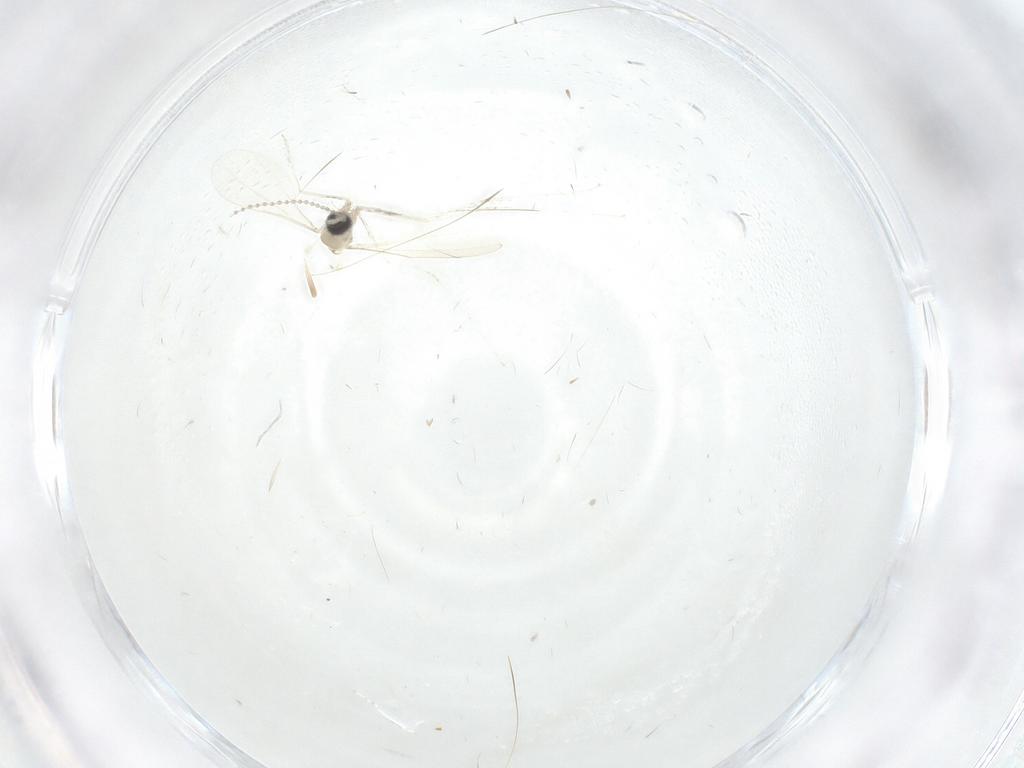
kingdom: Animalia
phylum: Arthropoda
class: Insecta
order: Diptera
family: Cecidomyiidae
